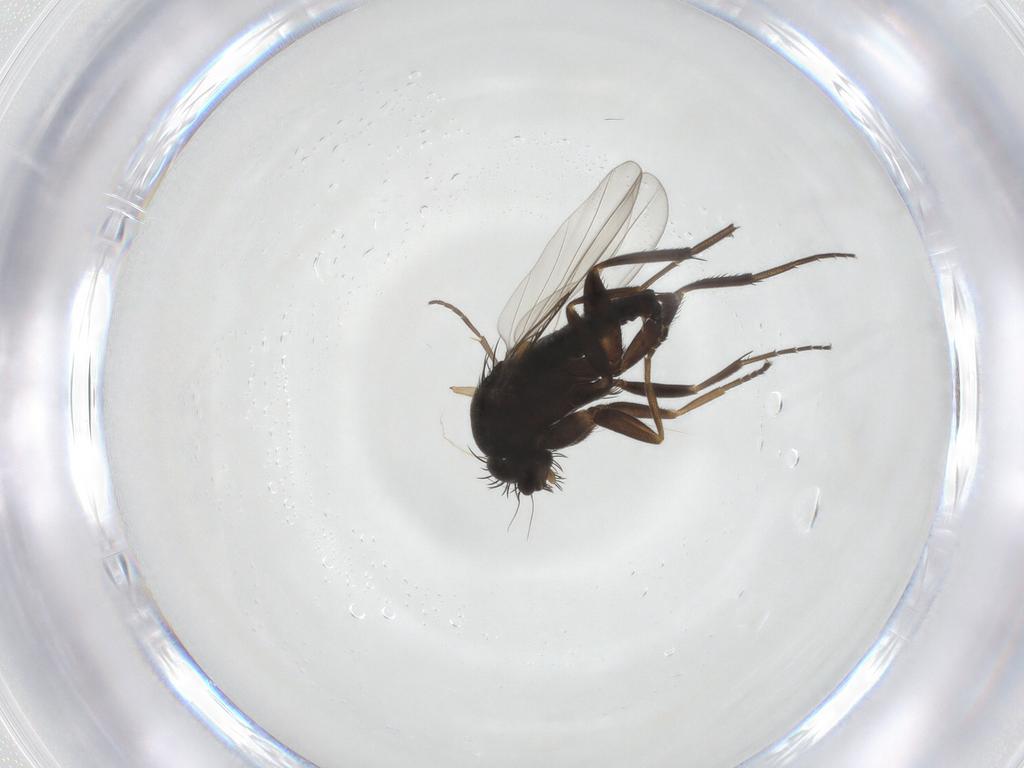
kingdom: Animalia
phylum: Arthropoda
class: Insecta
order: Diptera
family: Phoridae
